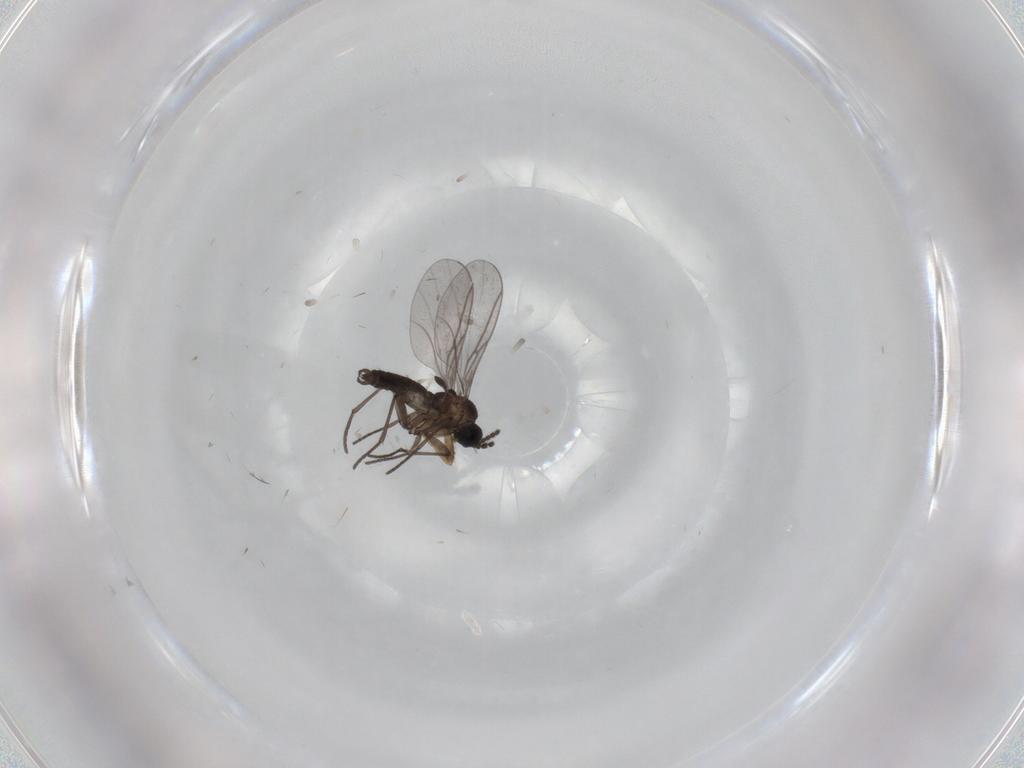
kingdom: Animalia
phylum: Arthropoda
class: Insecta
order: Diptera
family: Chironomidae
